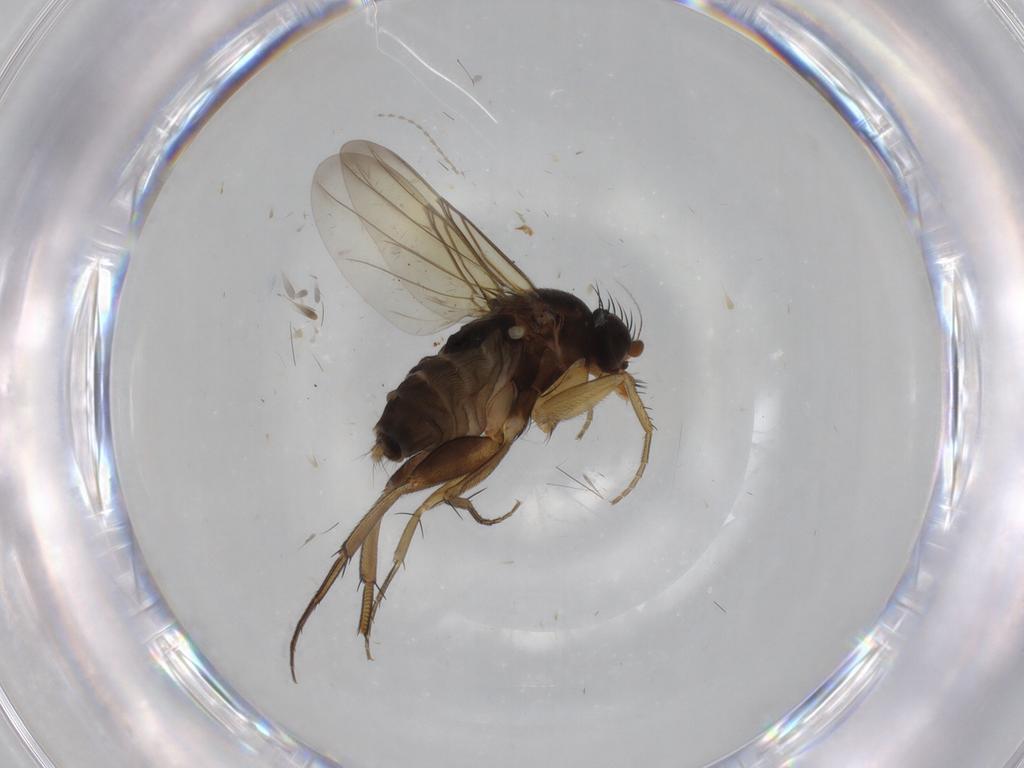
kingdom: Animalia
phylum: Arthropoda
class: Insecta
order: Diptera
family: Phoridae
